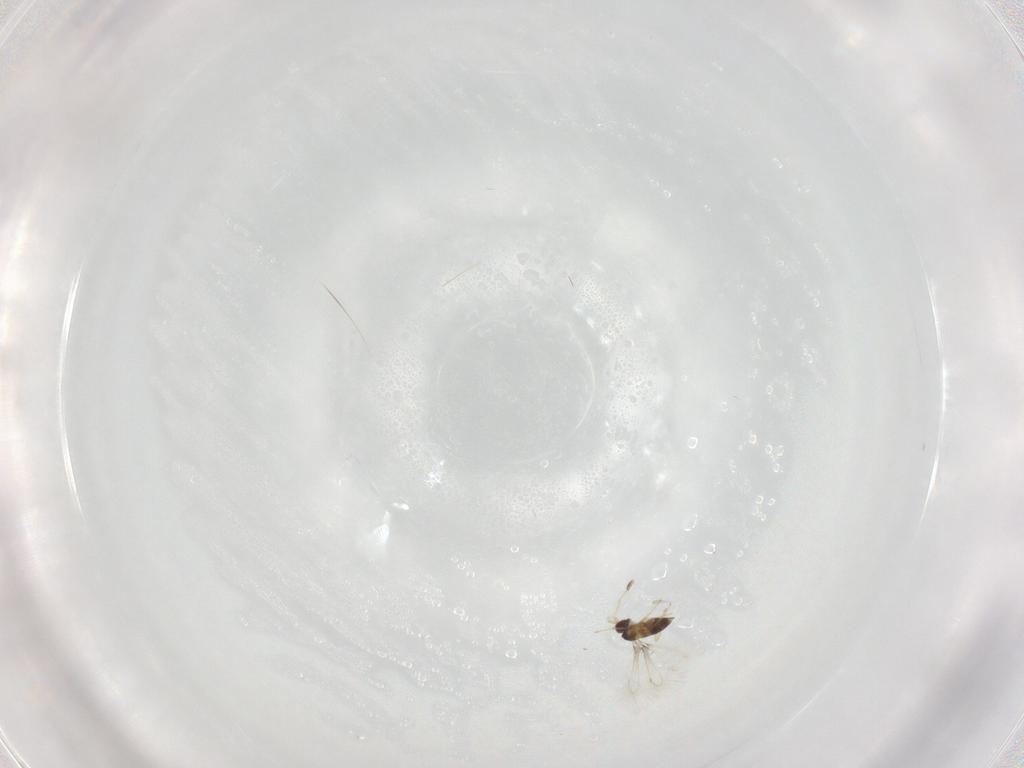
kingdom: Animalia
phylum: Arthropoda
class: Insecta
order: Hymenoptera
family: Mymaridae
